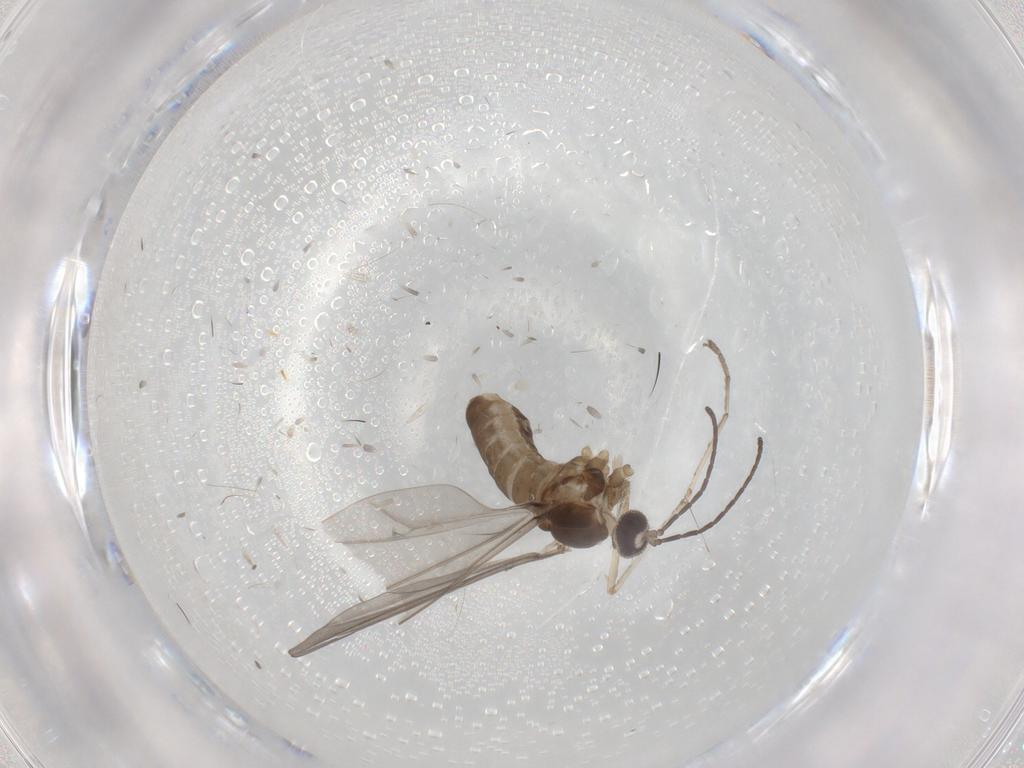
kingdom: Animalia
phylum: Arthropoda
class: Insecta
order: Diptera
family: Cecidomyiidae
